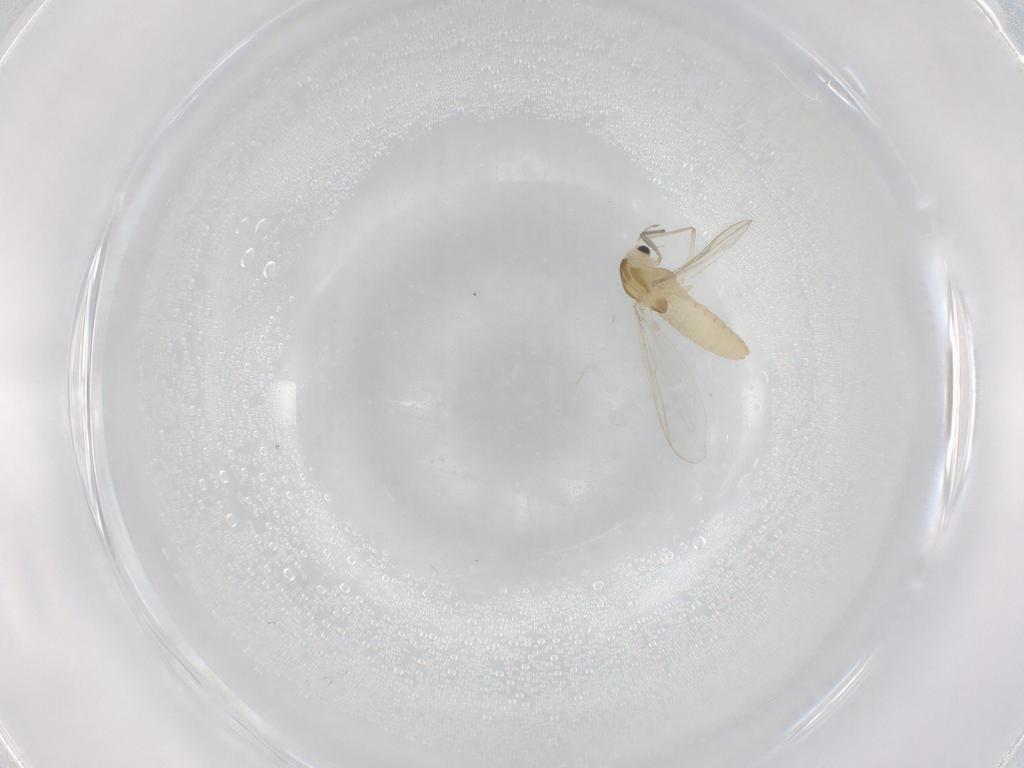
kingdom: Animalia
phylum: Arthropoda
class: Insecta
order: Diptera
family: Chironomidae
